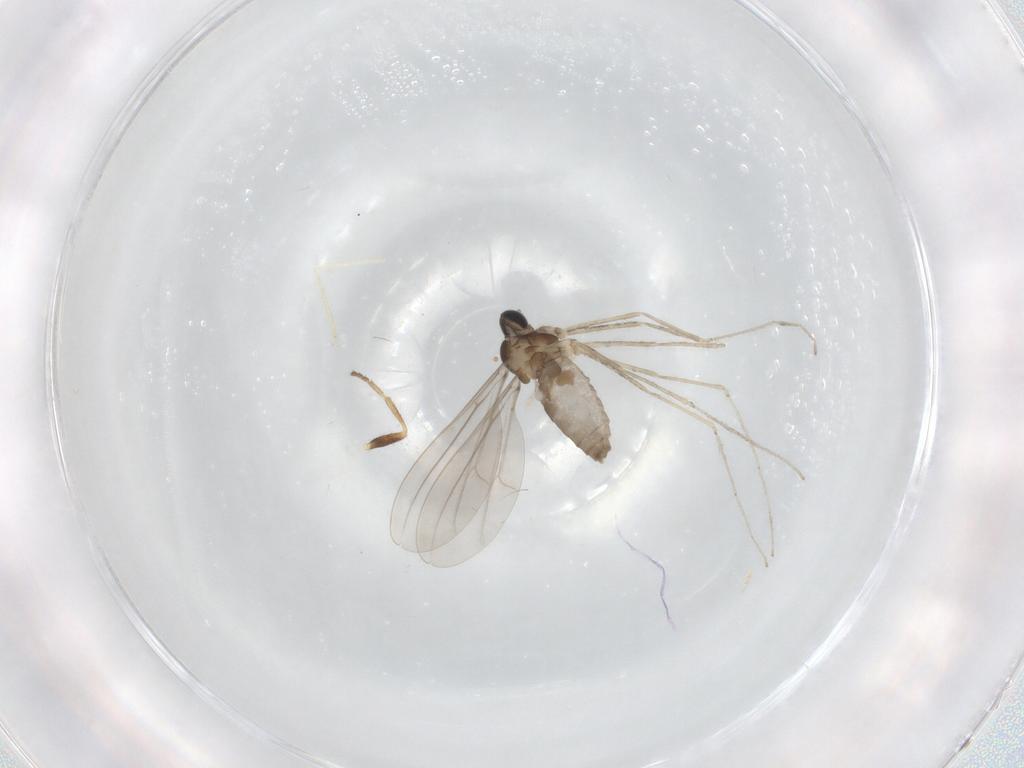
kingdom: Animalia
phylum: Arthropoda
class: Insecta
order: Diptera
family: Cecidomyiidae
